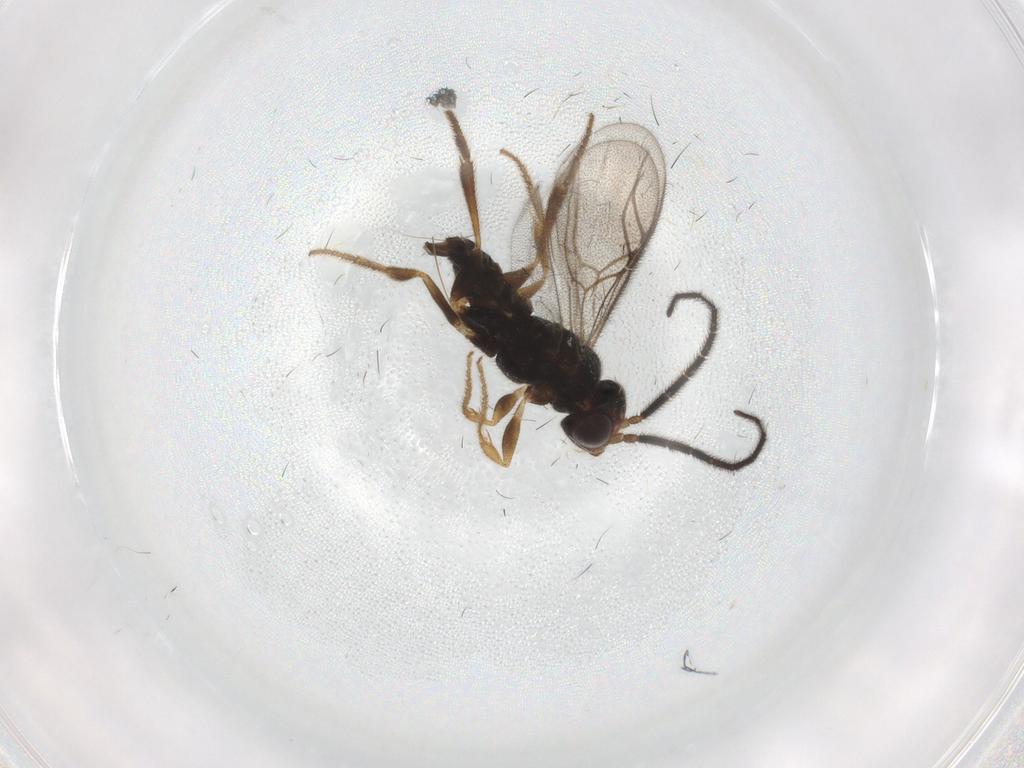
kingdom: Animalia
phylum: Arthropoda
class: Insecta
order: Hymenoptera
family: Dryinidae
